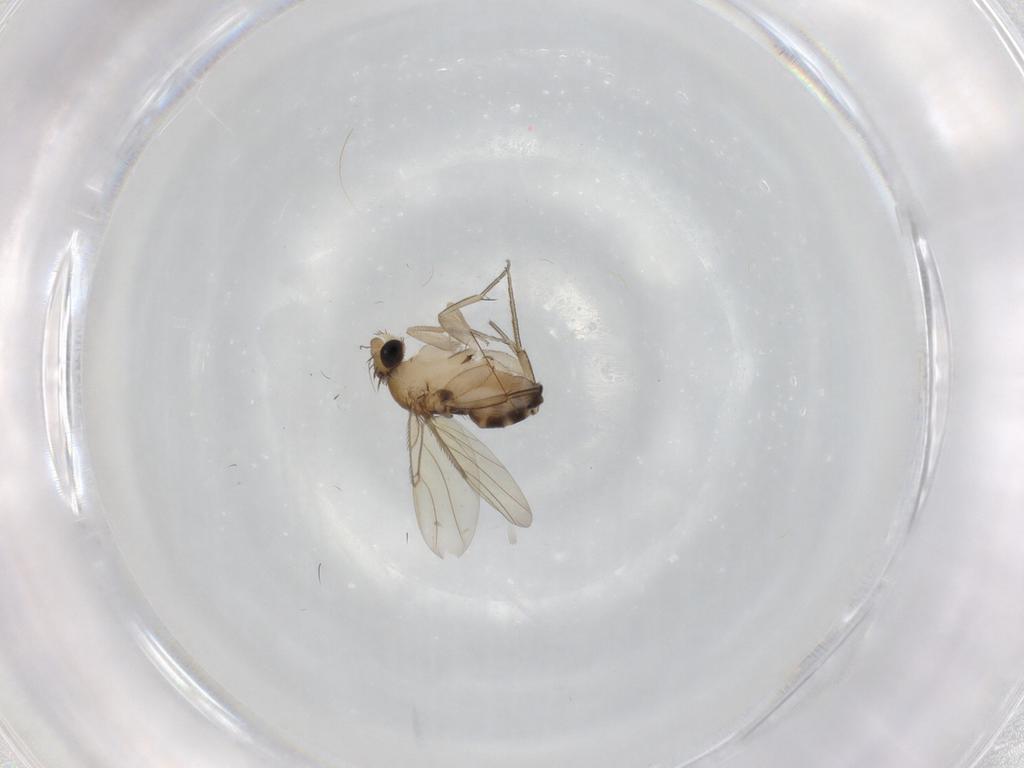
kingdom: Animalia
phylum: Arthropoda
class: Insecta
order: Diptera
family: Phoridae
